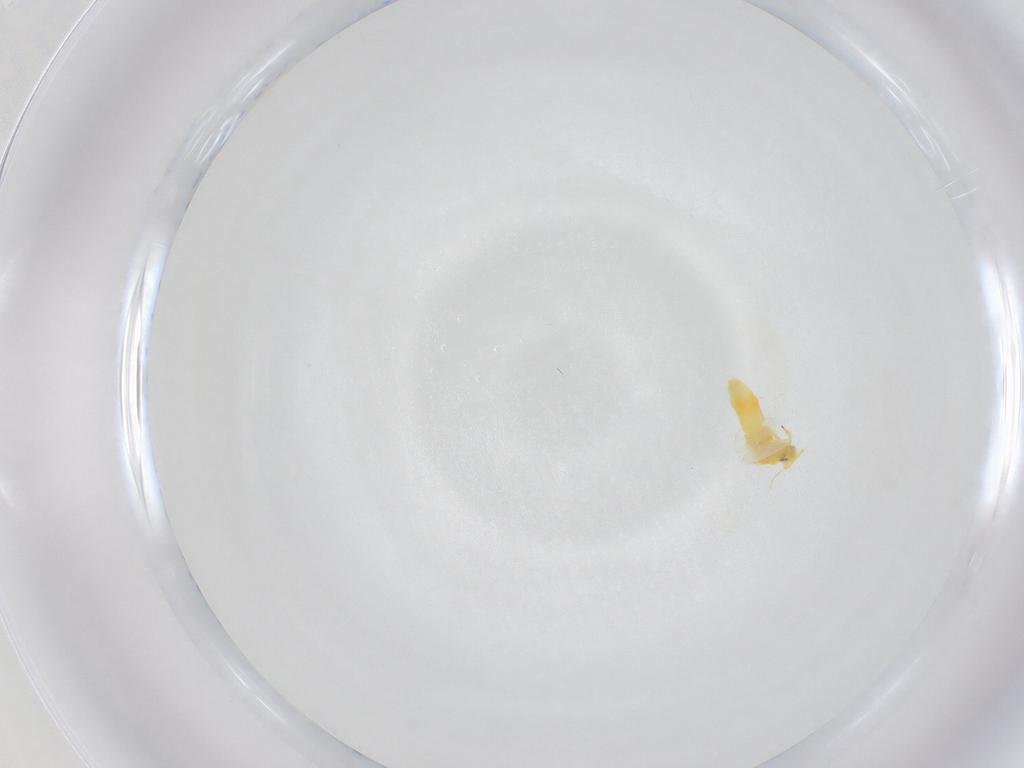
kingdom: Animalia
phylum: Arthropoda
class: Insecta
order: Hemiptera
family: Aleyrodidae
